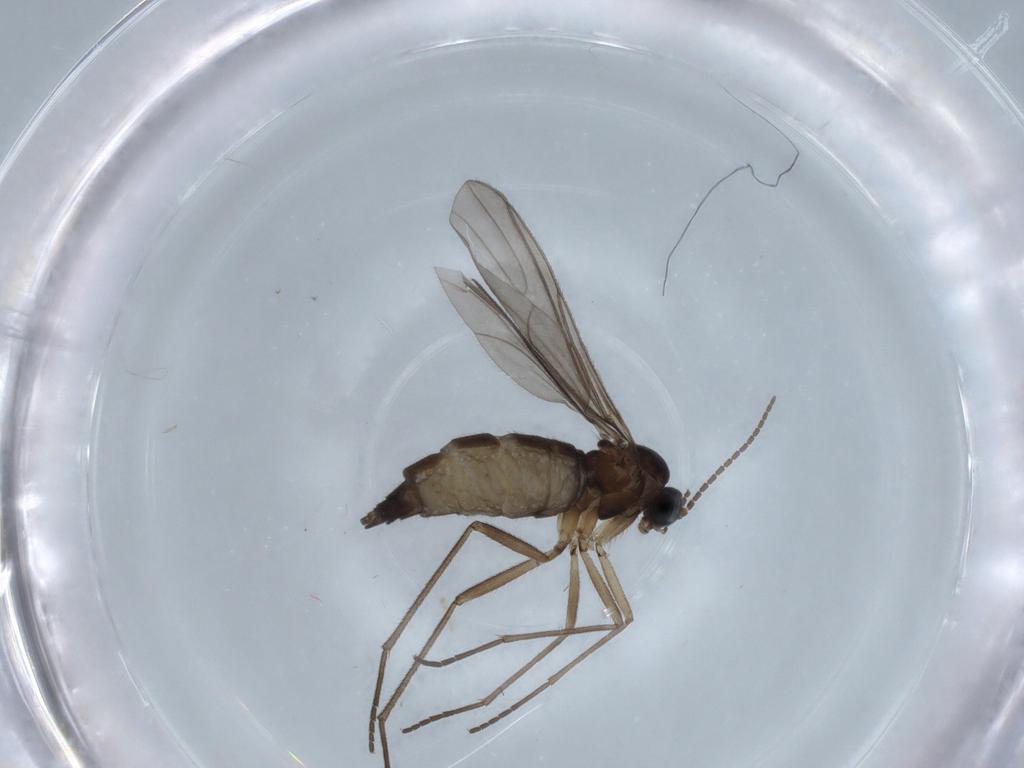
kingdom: Animalia
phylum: Arthropoda
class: Insecta
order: Diptera
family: Sciaridae
